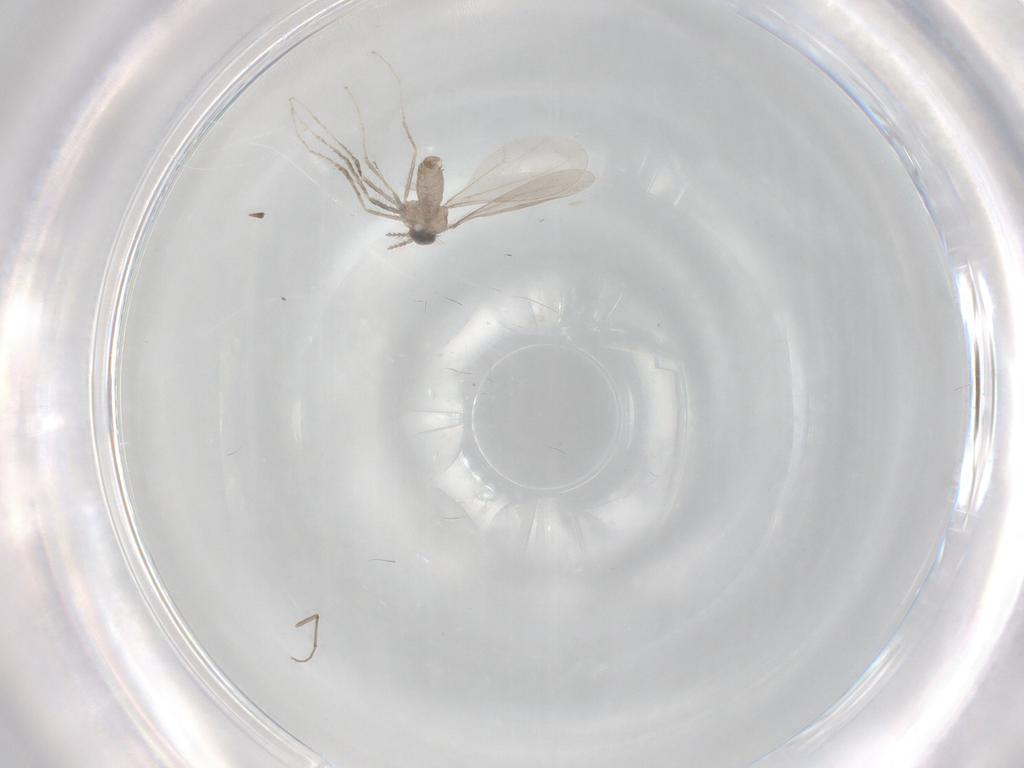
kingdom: Animalia
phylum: Arthropoda
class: Insecta
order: Diptera
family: Cecidomyiidae
